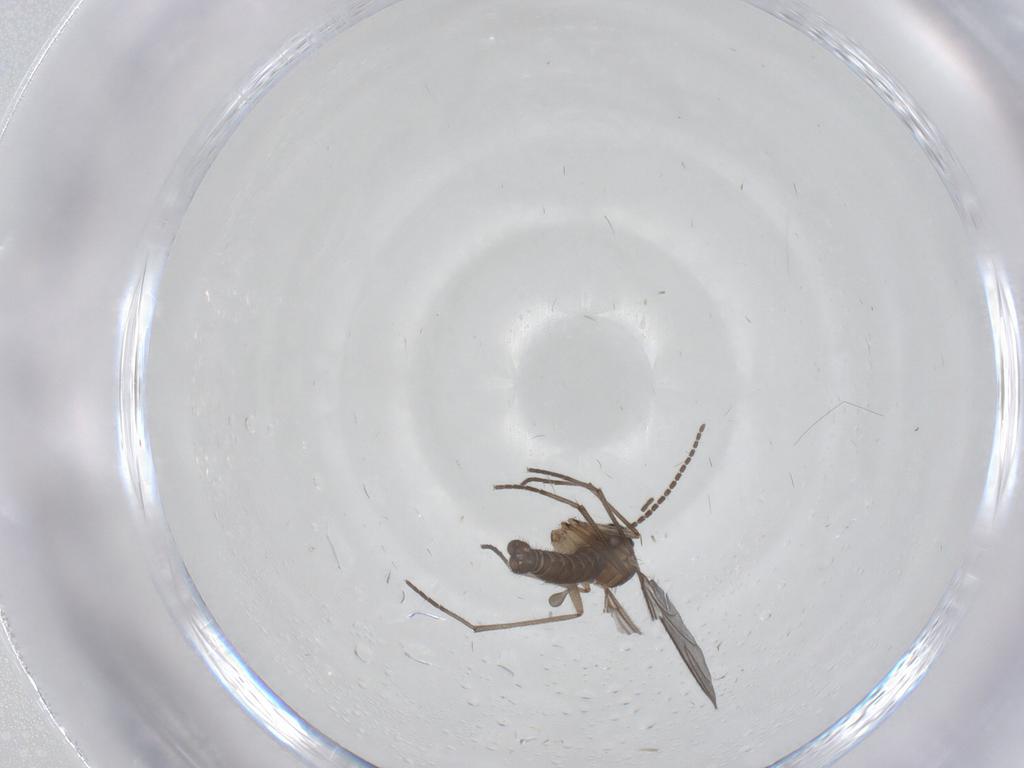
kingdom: Animalia
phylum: Arthropoda
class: Insecta
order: Diptera
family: Sciaridae
